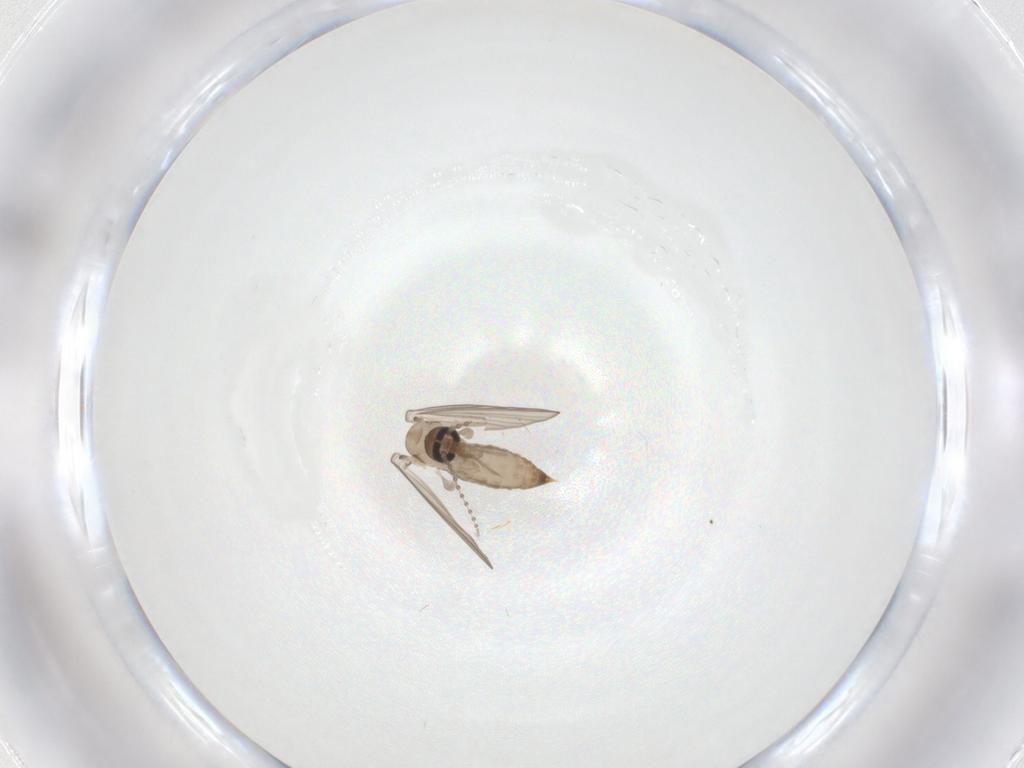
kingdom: Animalia
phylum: Arthropoda
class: Insecta
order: Diptera
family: Psychodidae
